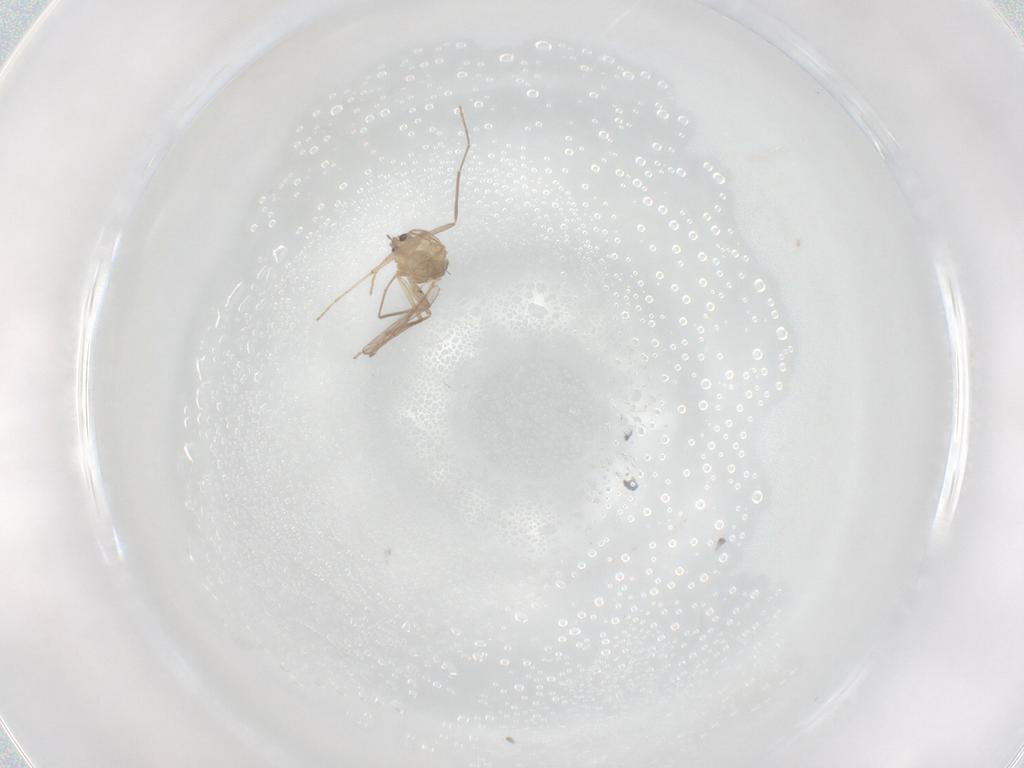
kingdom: Animalia
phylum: Arthropoda
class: Insecta
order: Diptera
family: Chironomidae
